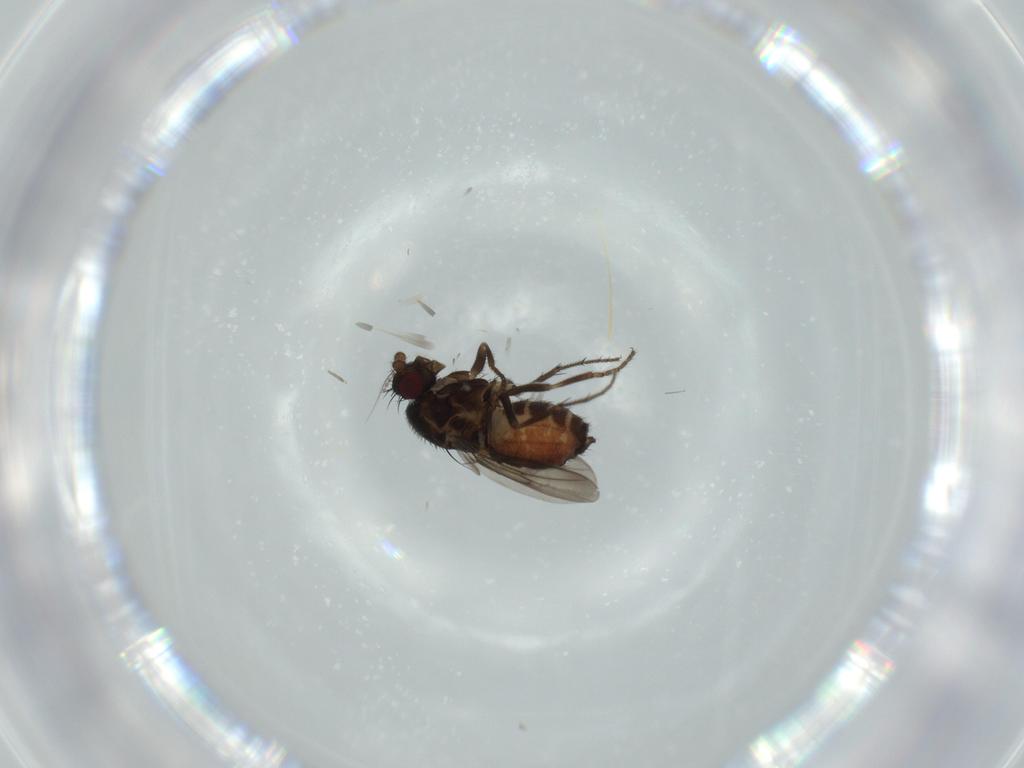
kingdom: Animalia
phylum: Arthropoda
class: Insecta
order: Diptera
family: Sphaeroceridae
